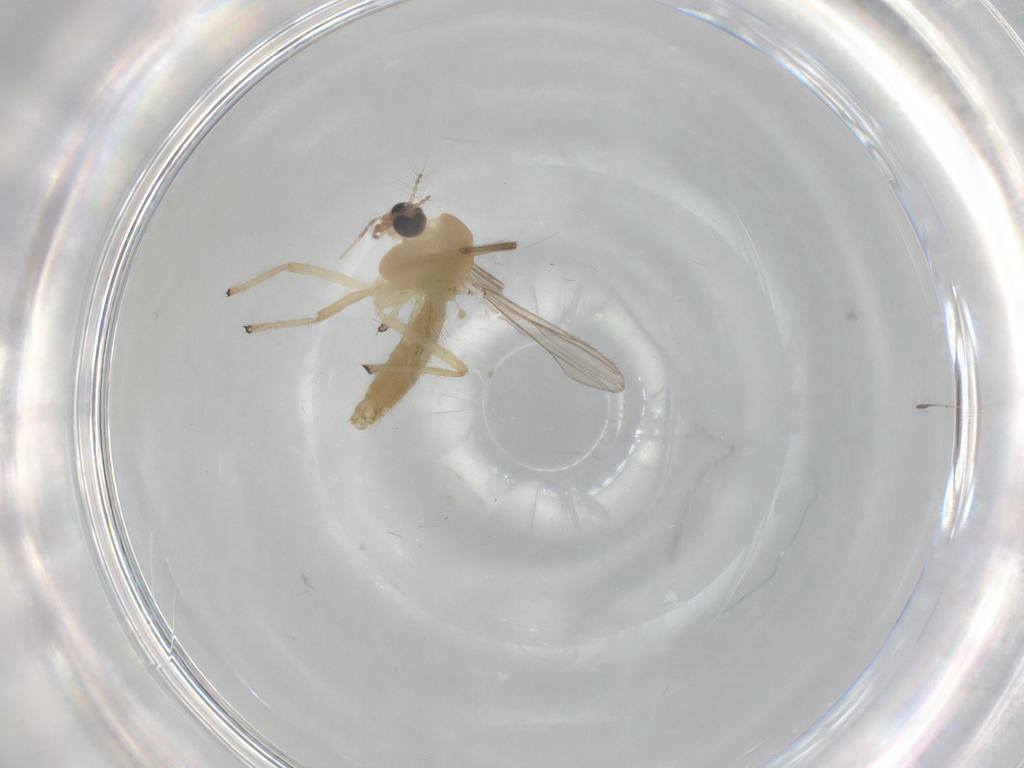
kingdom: Animalia
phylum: Arthropoda
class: Insecta
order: Diptera
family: Chironomidae
